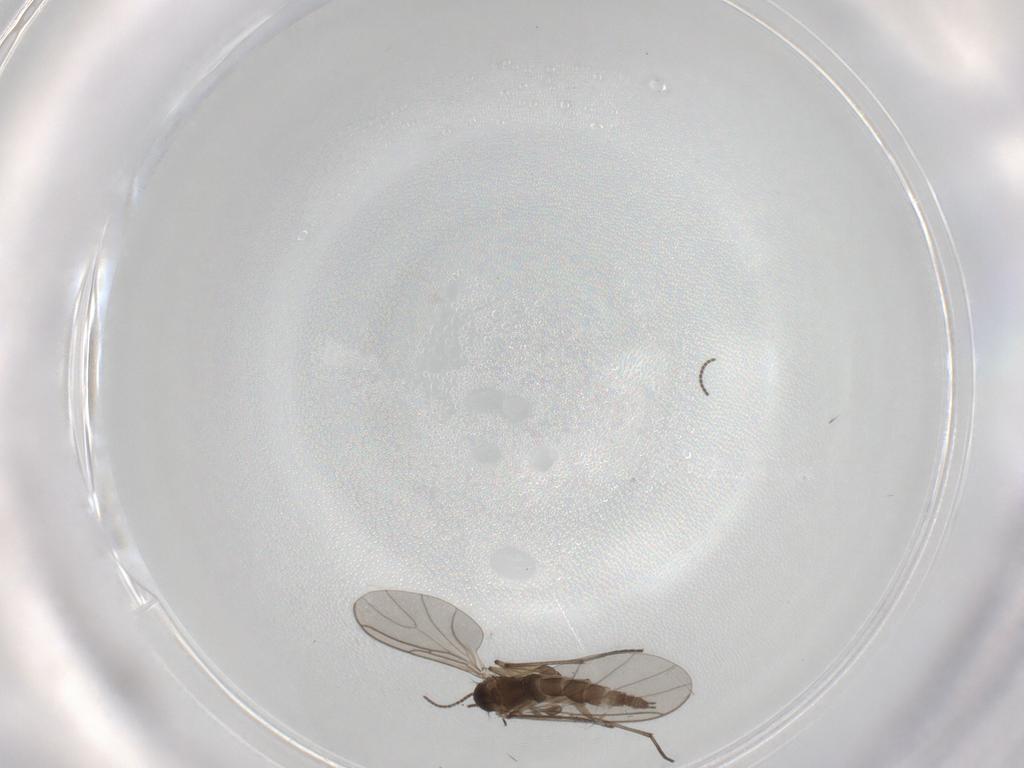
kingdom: Animalia
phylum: Arthropoda
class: Insecta
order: Diptera
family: Sciaridae
